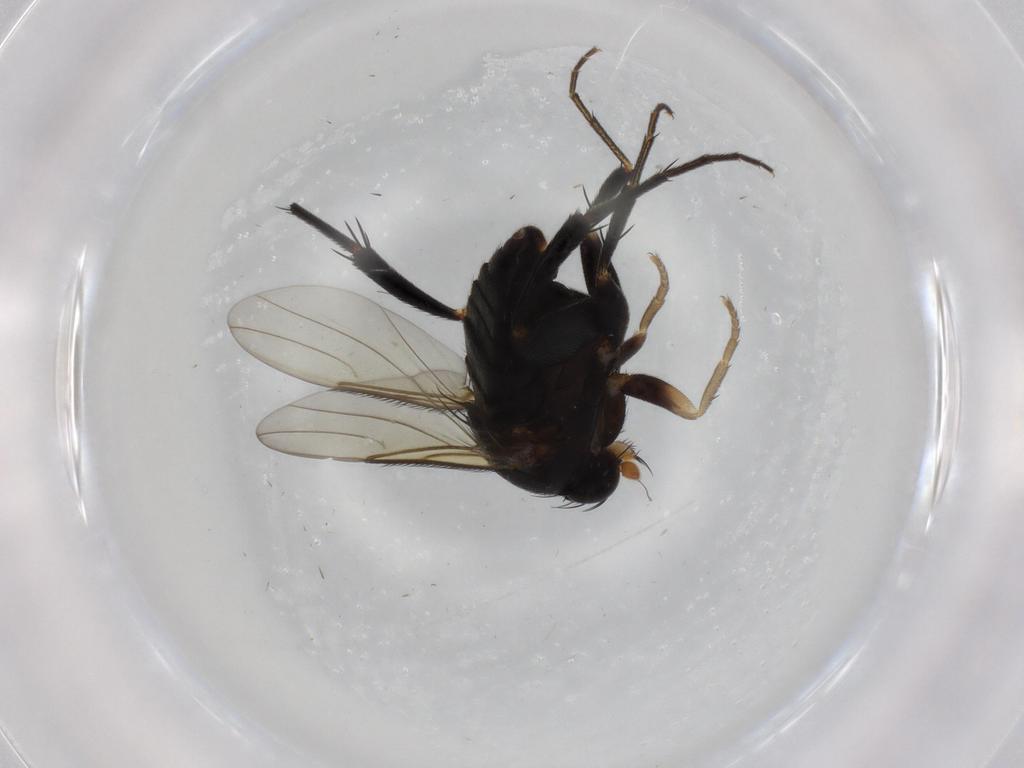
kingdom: Animalia
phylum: Arthropoda
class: Insecta
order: Diptera
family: Phoridae
